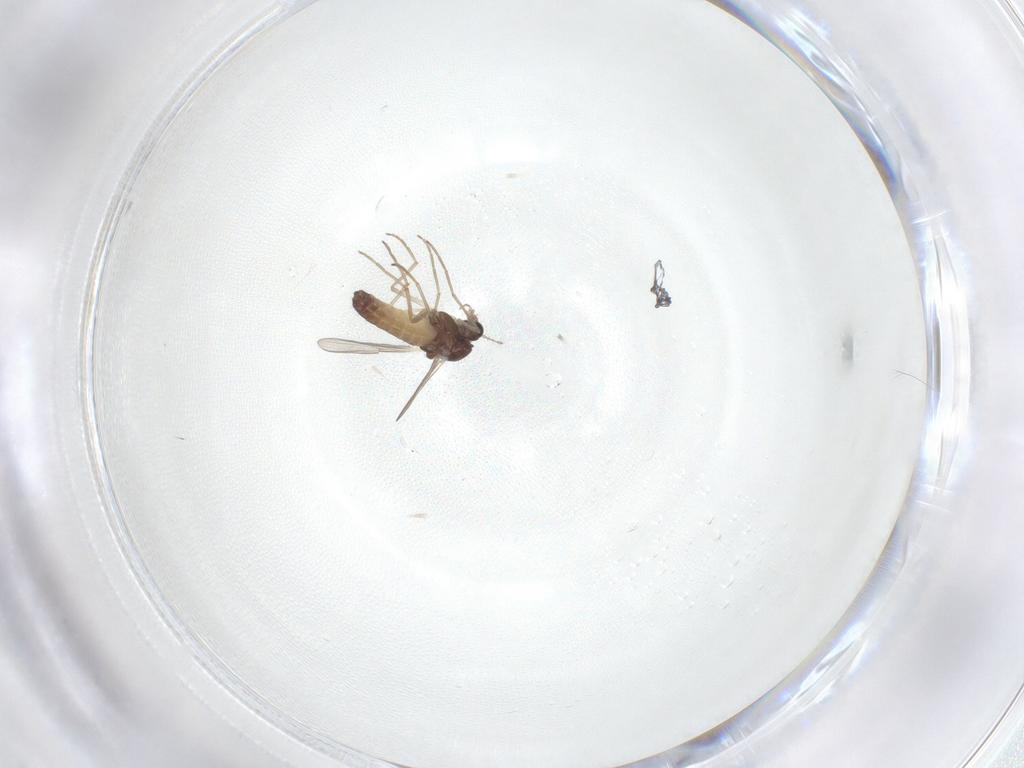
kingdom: Animalia
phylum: Arthropoda
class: Insecta
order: Diptera
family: Chironomidae
